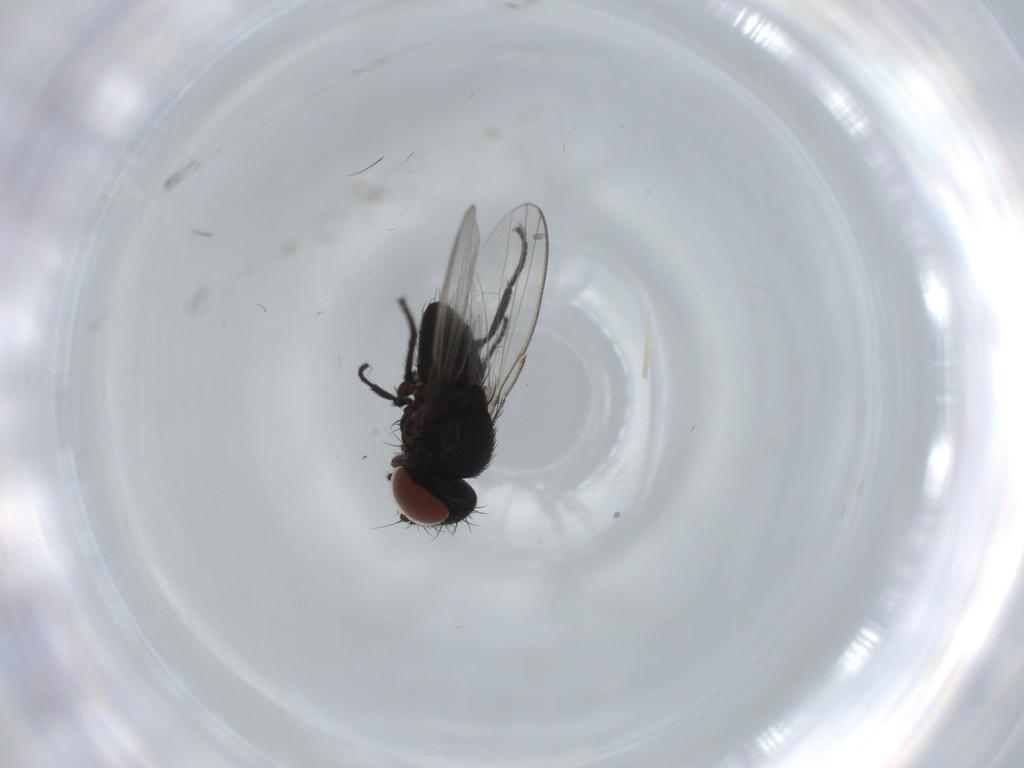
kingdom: Animalia
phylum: Arthropoda
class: Insecta
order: Diptera
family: Milichiidae
